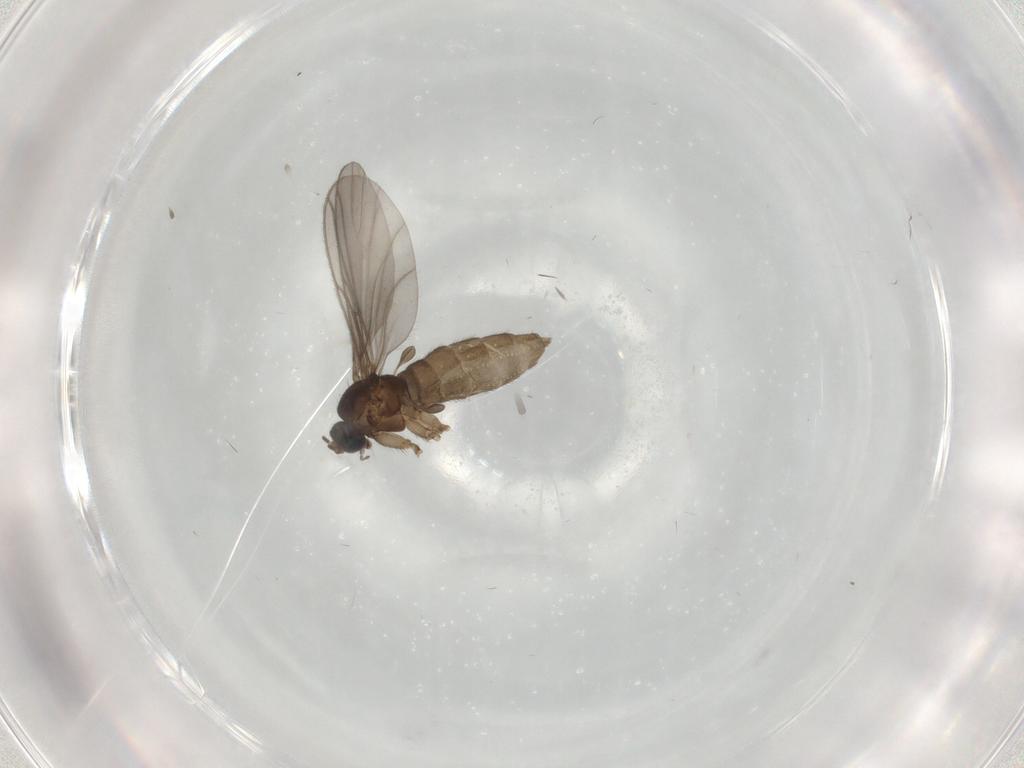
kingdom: Animalia
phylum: Arthropoda
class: Insecta
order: Diptera
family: Sciaridae
